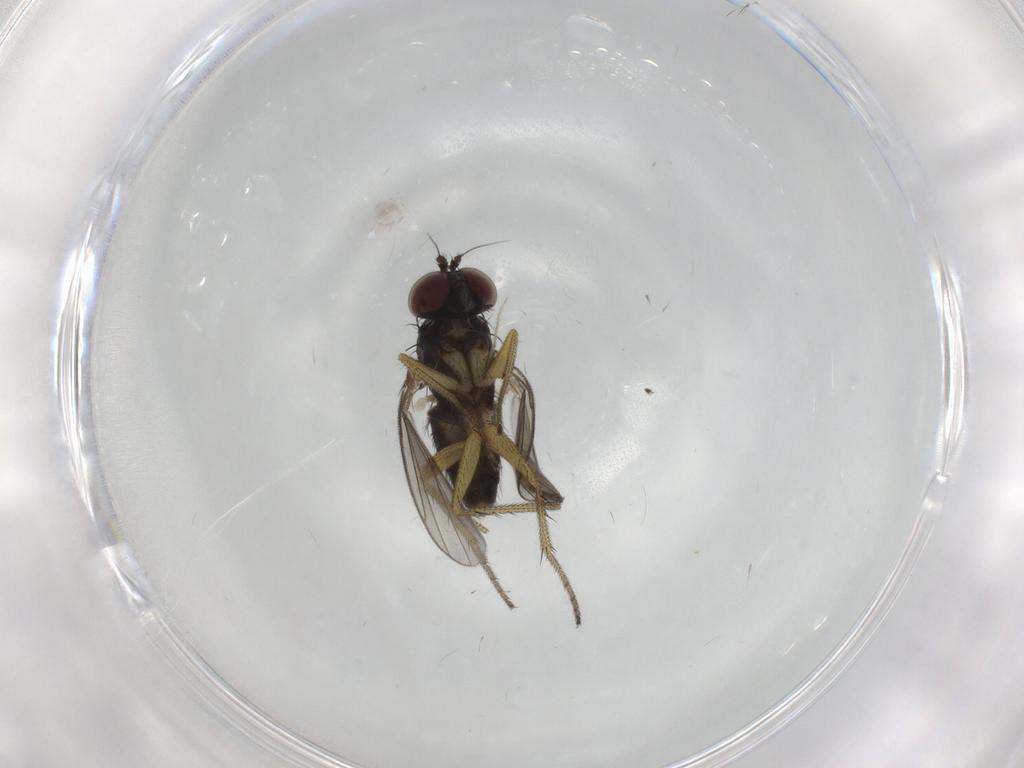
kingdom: Animalia
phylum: Arthropoda
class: Insecta
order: Diptera
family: Chironomidae
